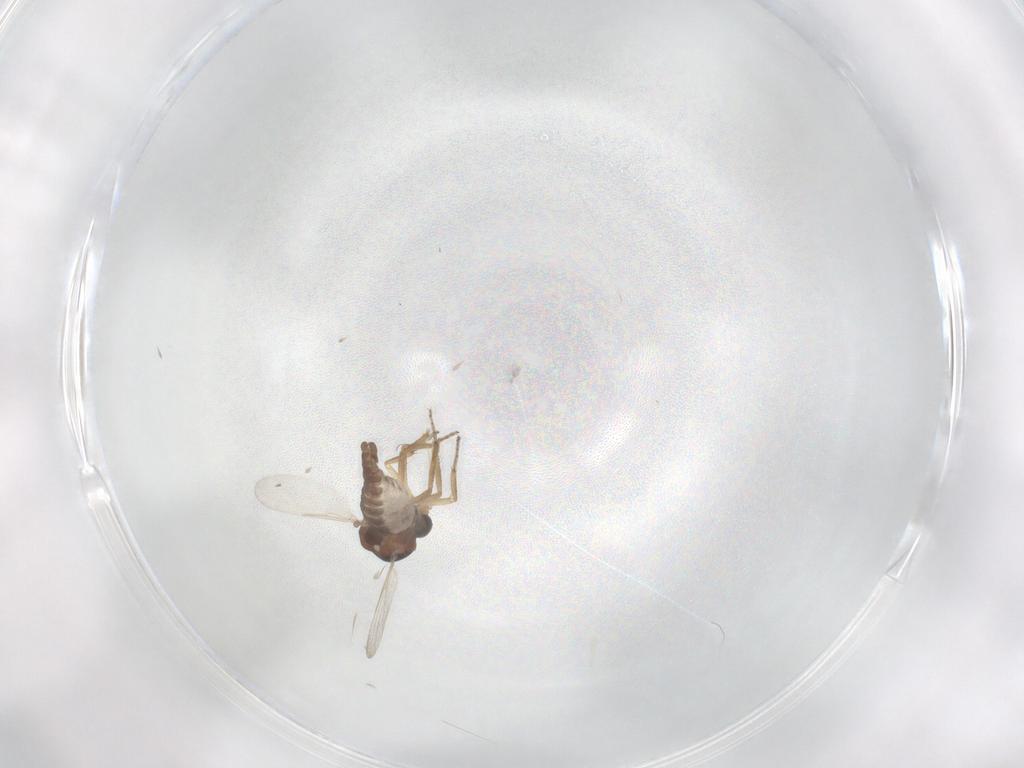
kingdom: Animalia
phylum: Arthropoda
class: Insecta
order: Diptera
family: Ceratopogonidae
